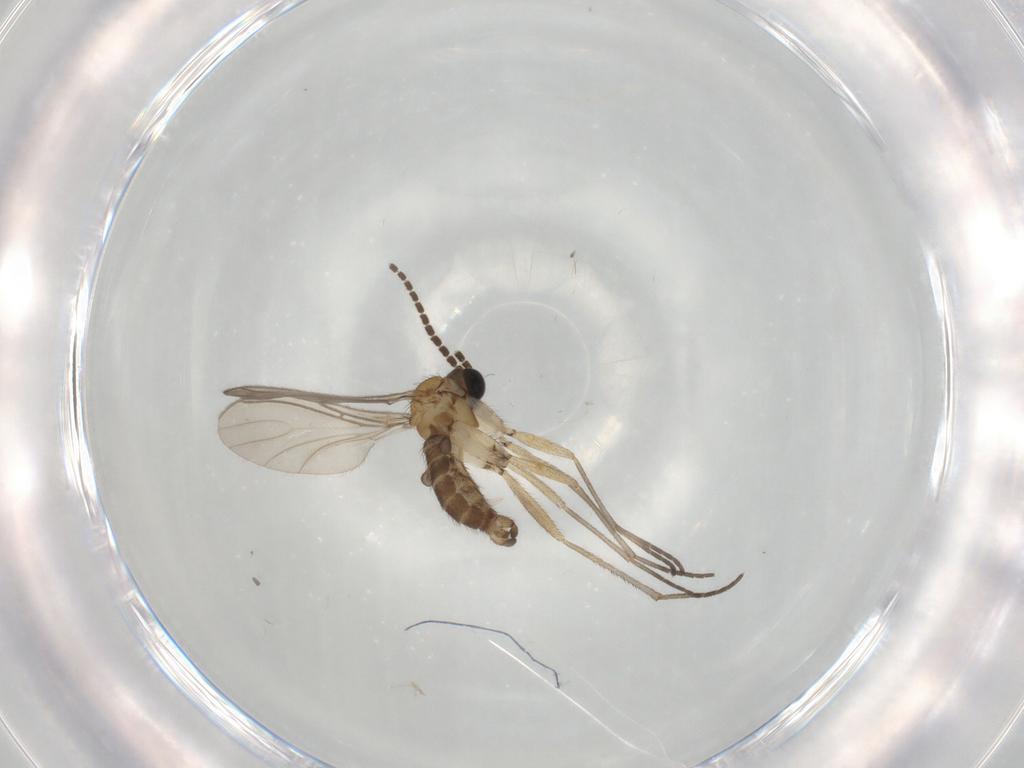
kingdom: Animalia
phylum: Arthropoda
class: Insecta
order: Diptera
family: Sciaridae
